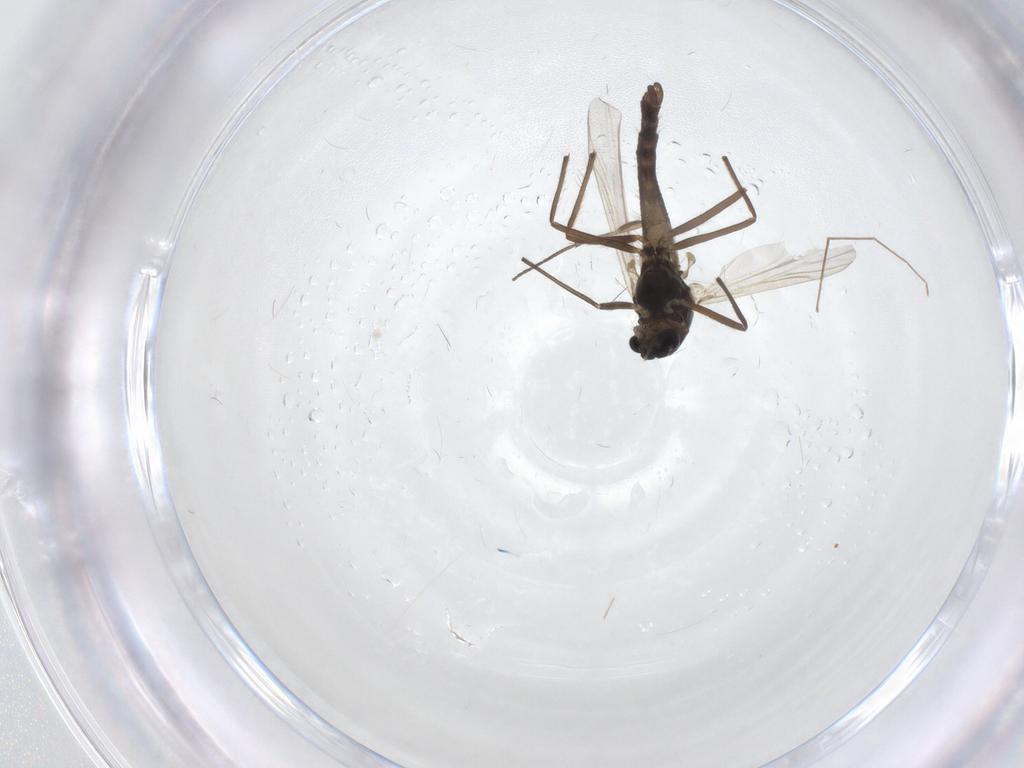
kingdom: Animalia
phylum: Arthropoda
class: Insecta
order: Diptera
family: Chironomidae
